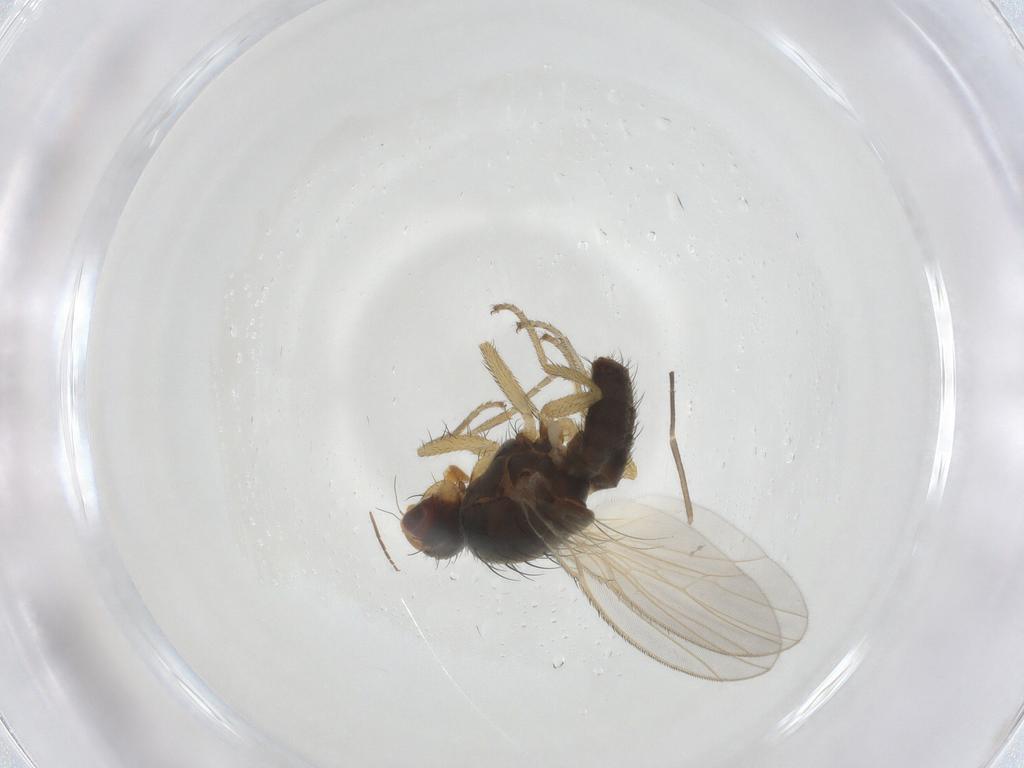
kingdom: Animalia
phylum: Arthropoda
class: Insecta
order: Diptera
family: Heleomyzidae
